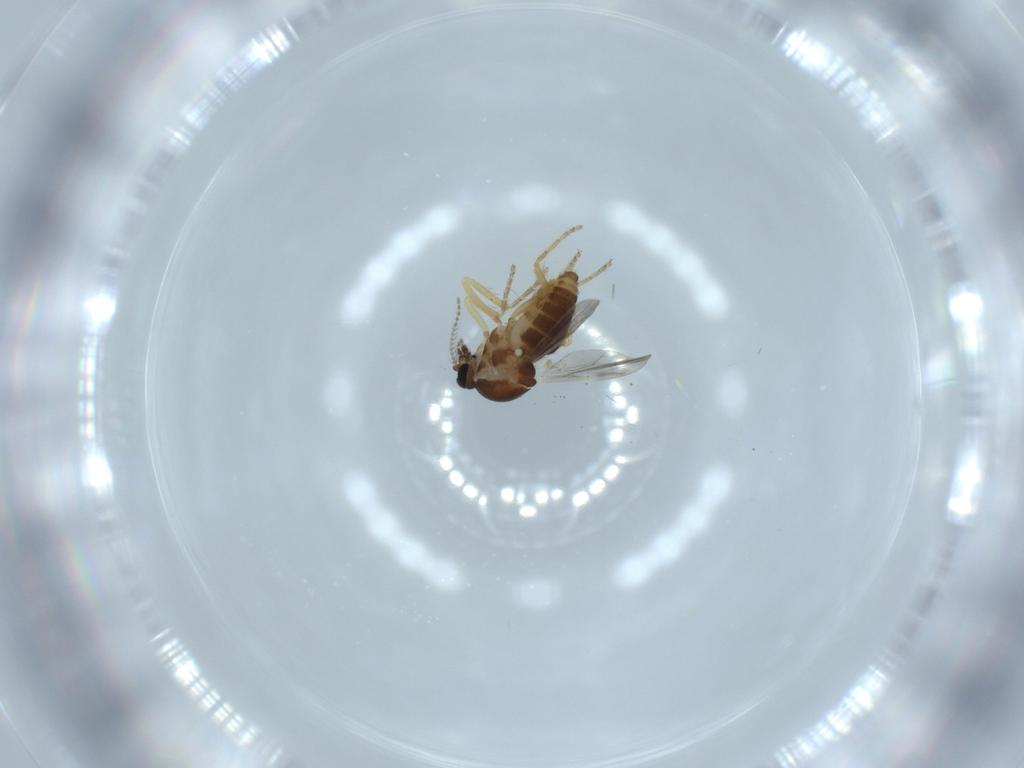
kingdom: Animalia
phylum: Arthropoda
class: Insecta
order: Diptera
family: Ceratopogonidae
